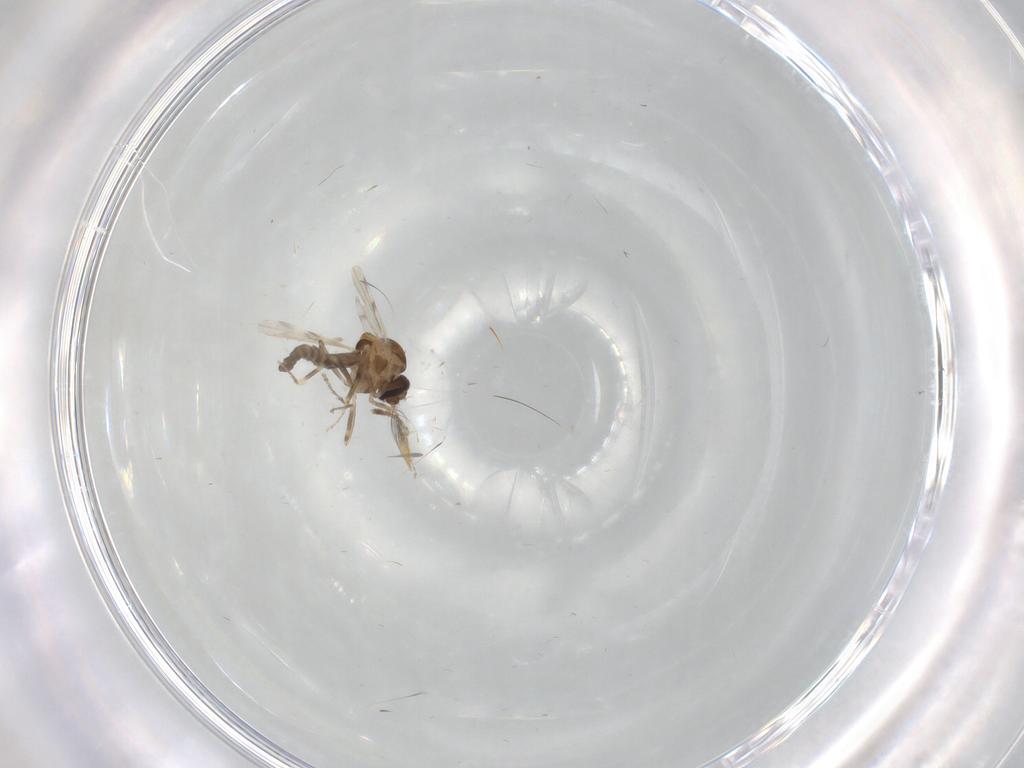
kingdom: Animalia
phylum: Arthropoda
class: Insecta
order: Diptera
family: Ceratopogonidae
